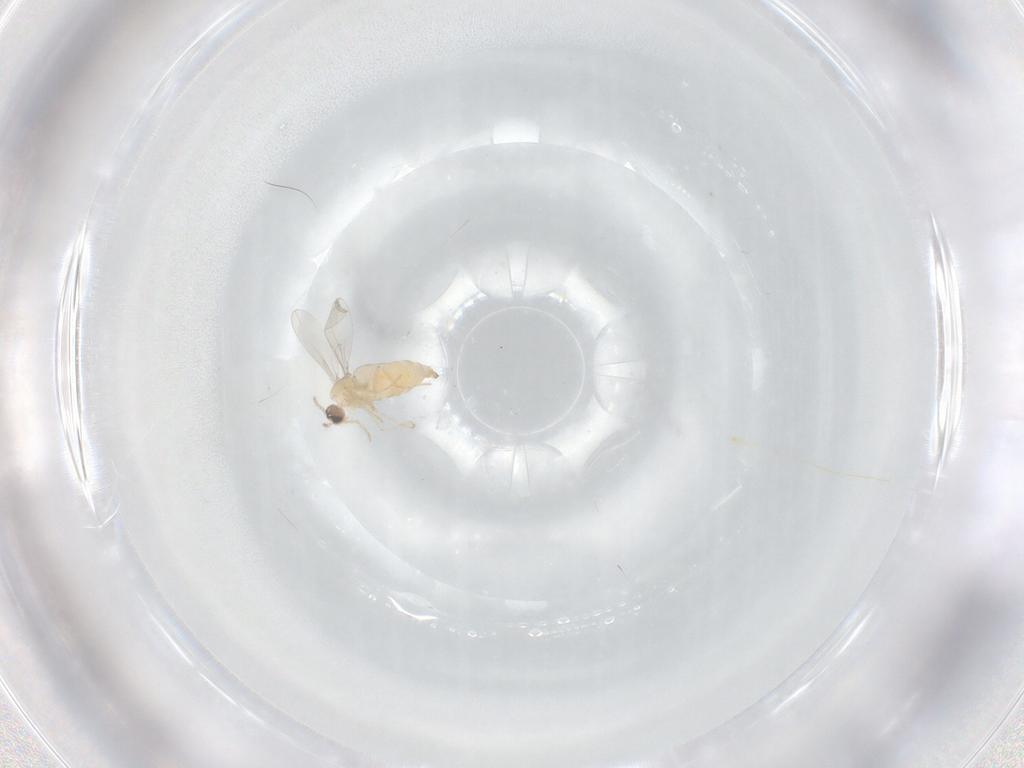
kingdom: Animalia
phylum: Arthropoda
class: Insecta
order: Diptera
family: Cecidomyiidae
